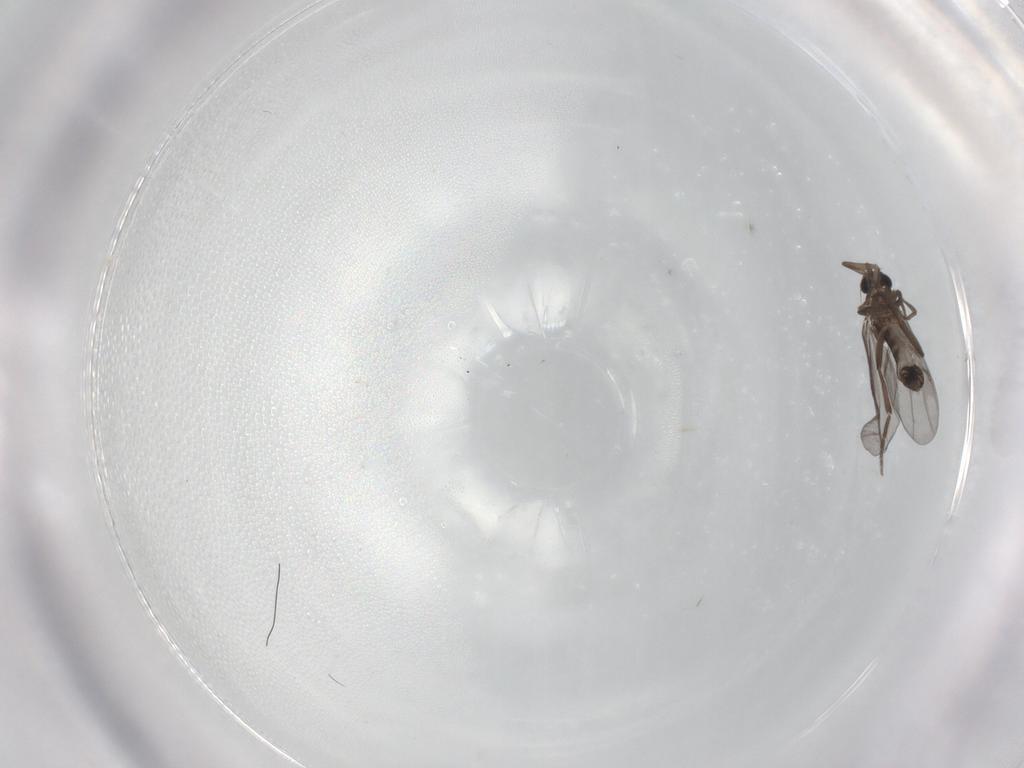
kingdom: Animalia
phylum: Arthropoda
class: Insecta
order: Diptera
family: Phoridae
